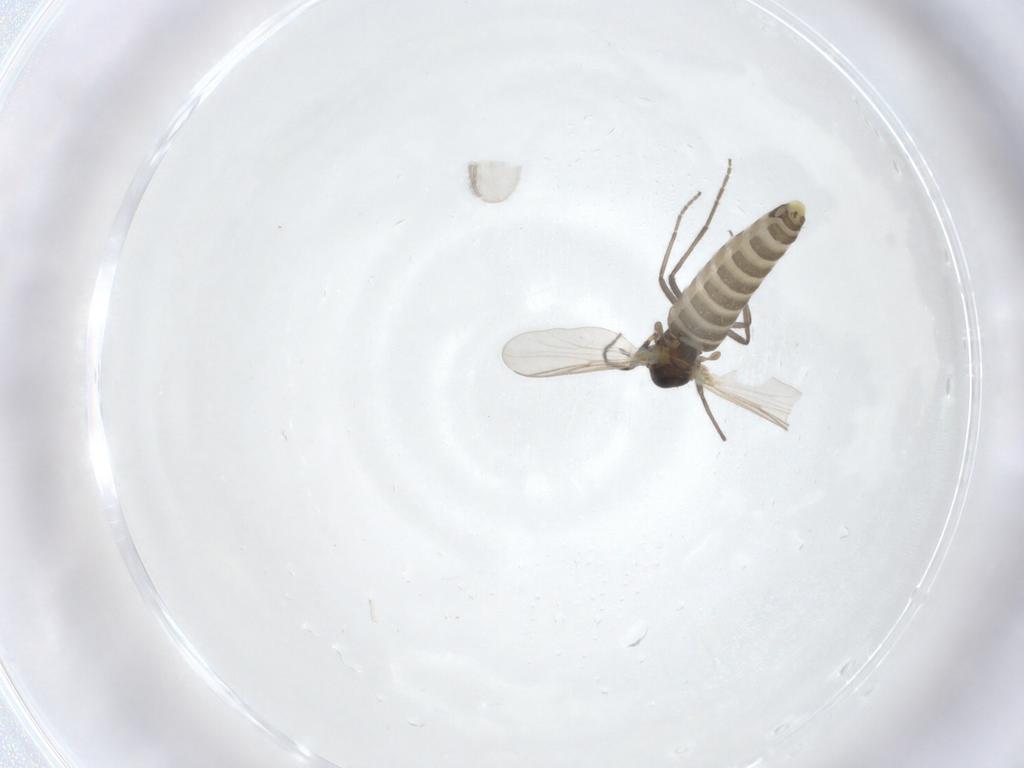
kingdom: Animalia
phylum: Arthropoda
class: Insecta
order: Diptera
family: Chironomidae
